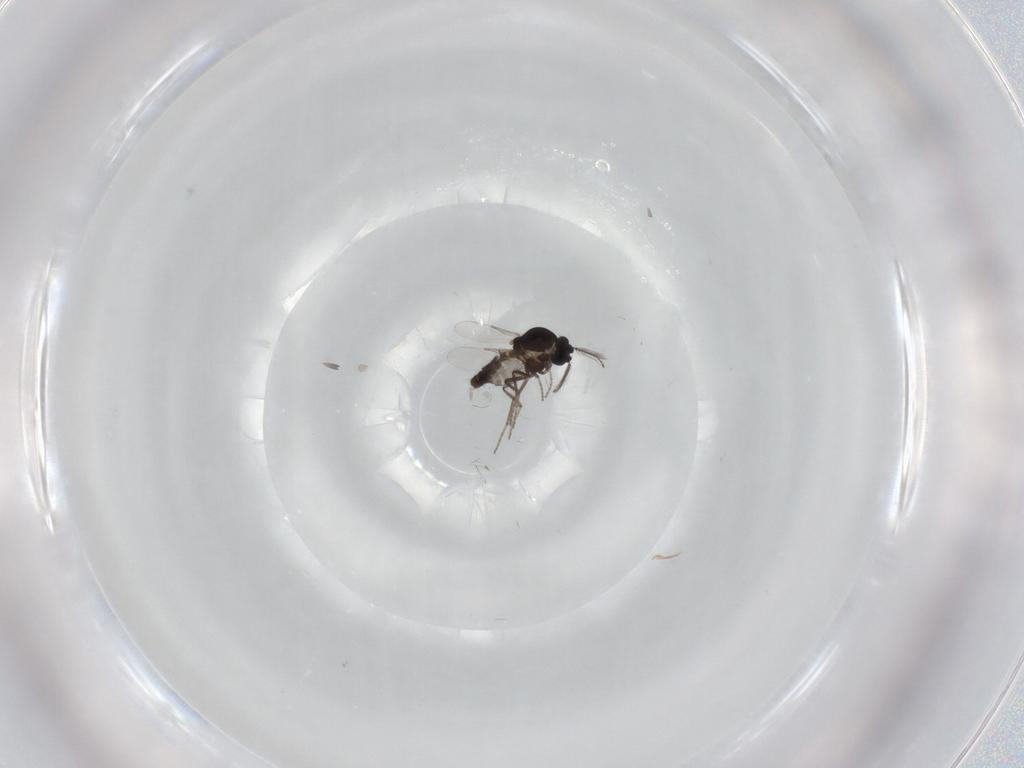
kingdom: Animalia
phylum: Arthropoda
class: Insecta
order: Diptera
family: Ceratopogonidae
